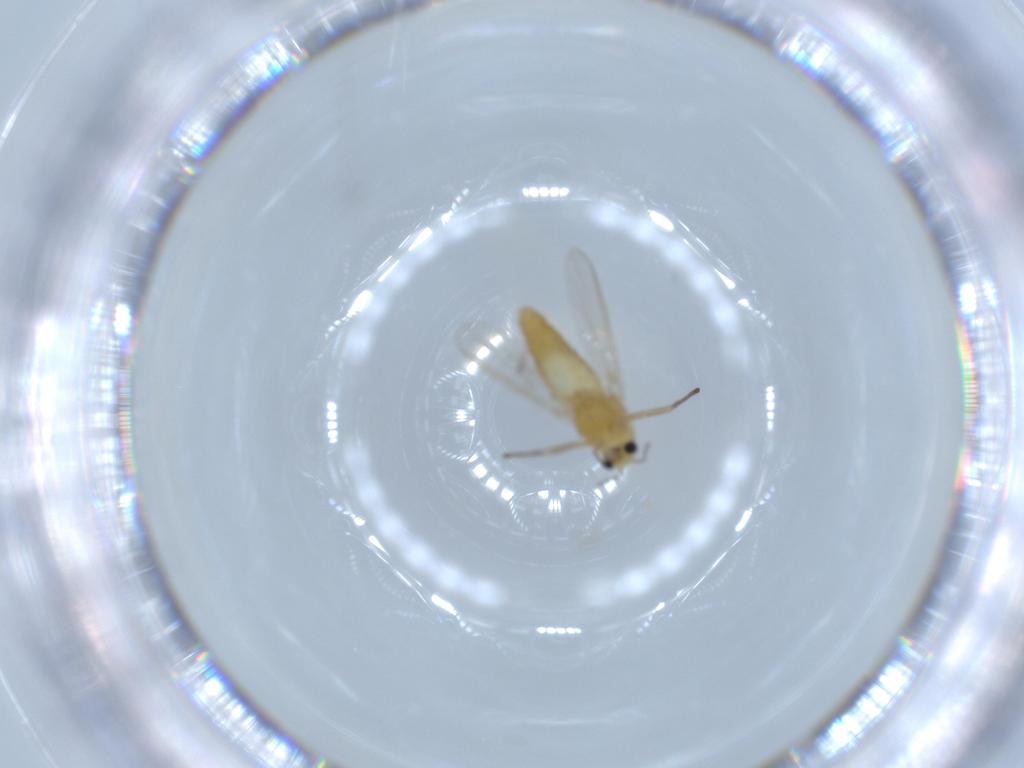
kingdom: Animalia
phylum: Arthropoda
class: Insecta
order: Diptera
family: Chironomidae
